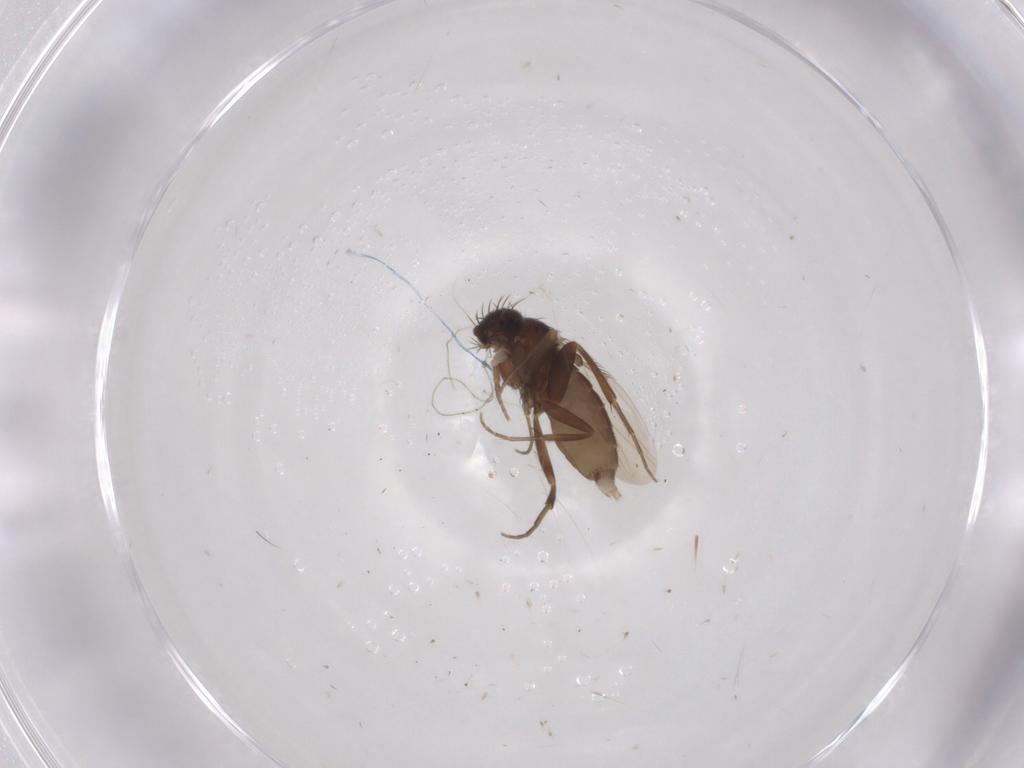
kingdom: Animalia
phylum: Arthropoda
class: Insecta
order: Diptera
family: Phoridae
